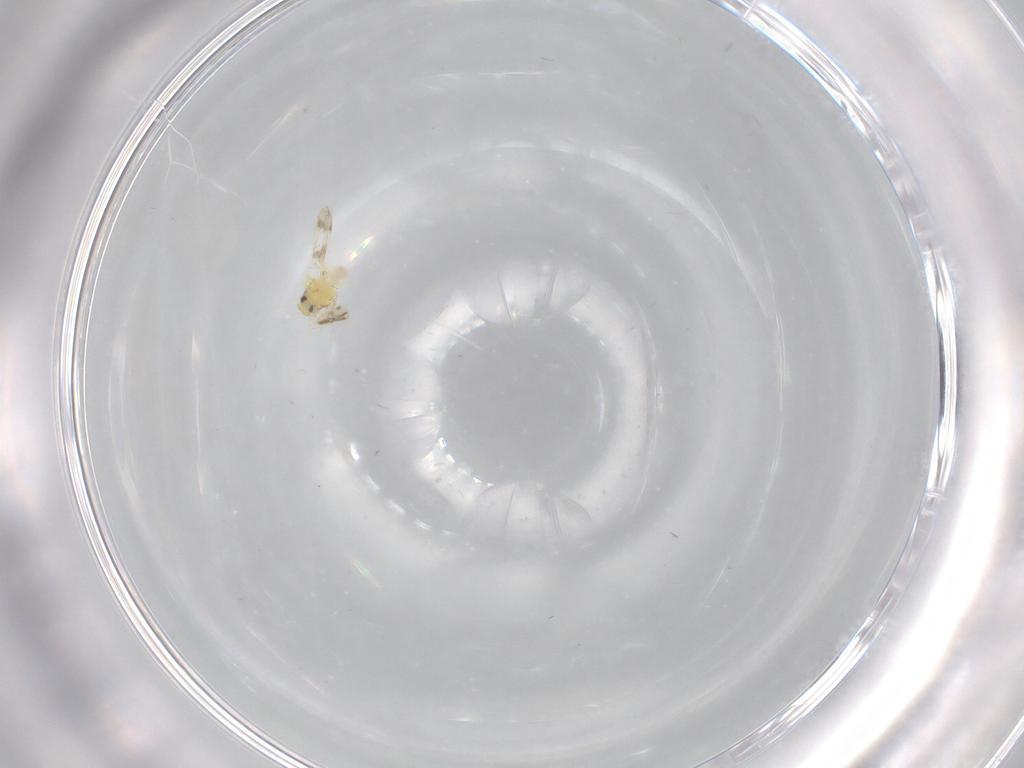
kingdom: Animalia
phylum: Arthropoda
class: Insecta
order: Hemiptera
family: Aleyrodidae
